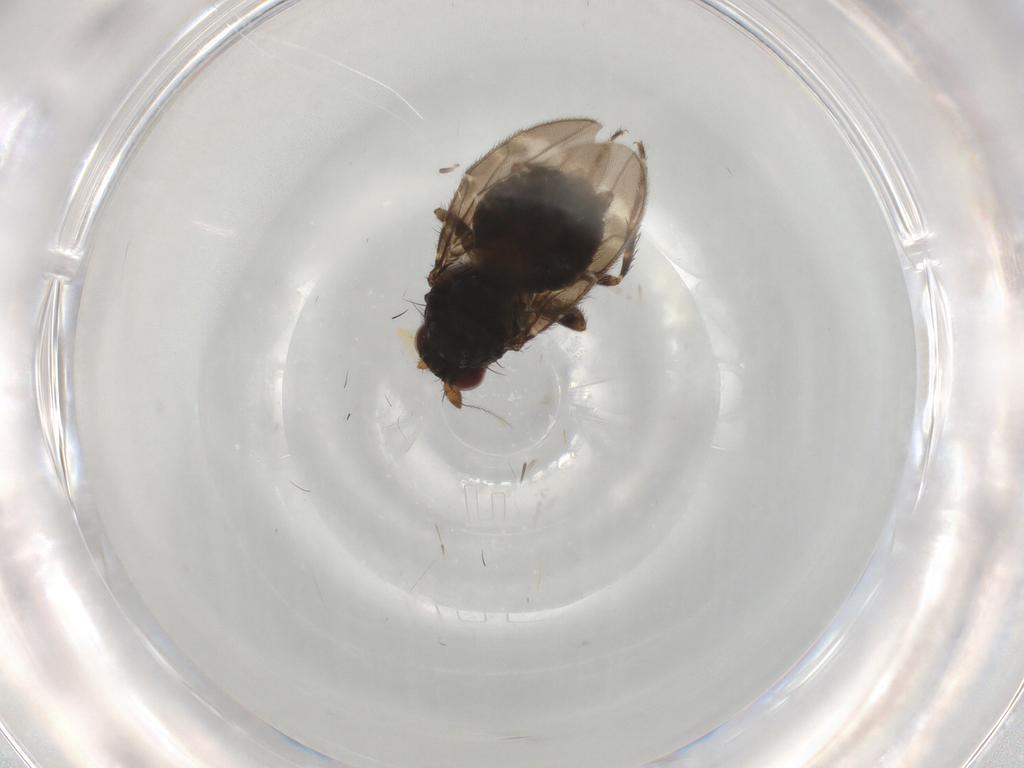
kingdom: Animalia
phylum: Arthropoda
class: Insecta
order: Diptera
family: Sphaeroceridae
